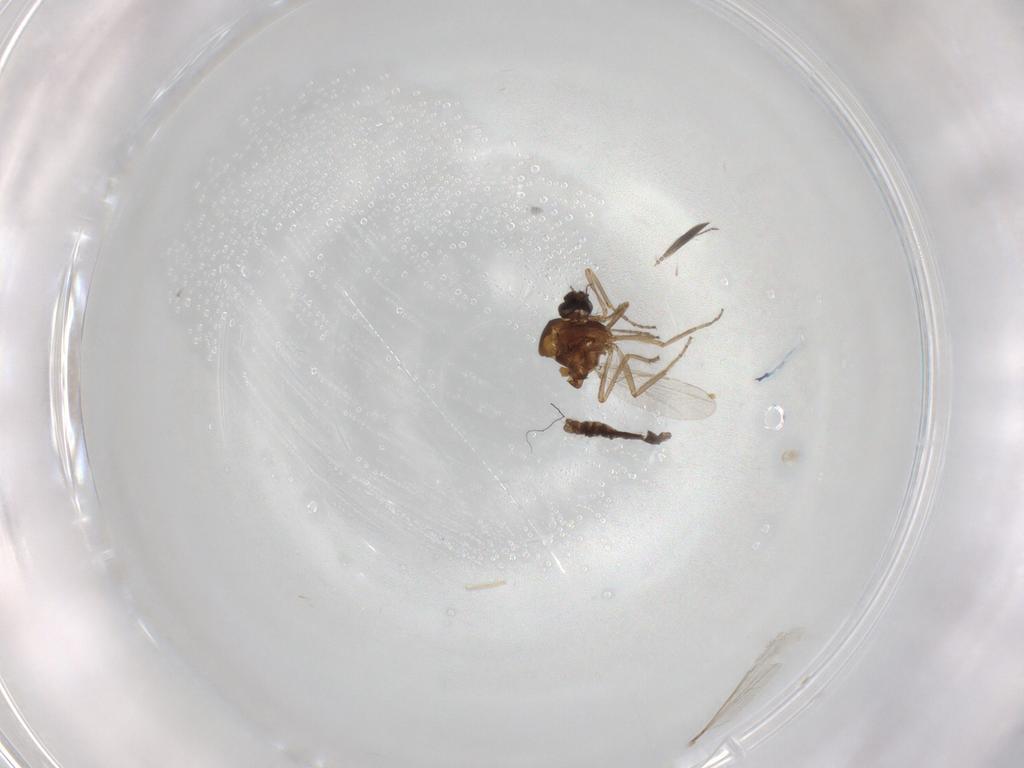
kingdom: Animalia
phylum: Arthropoda
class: Insecta
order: Diptera
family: Ceratopogonidae
